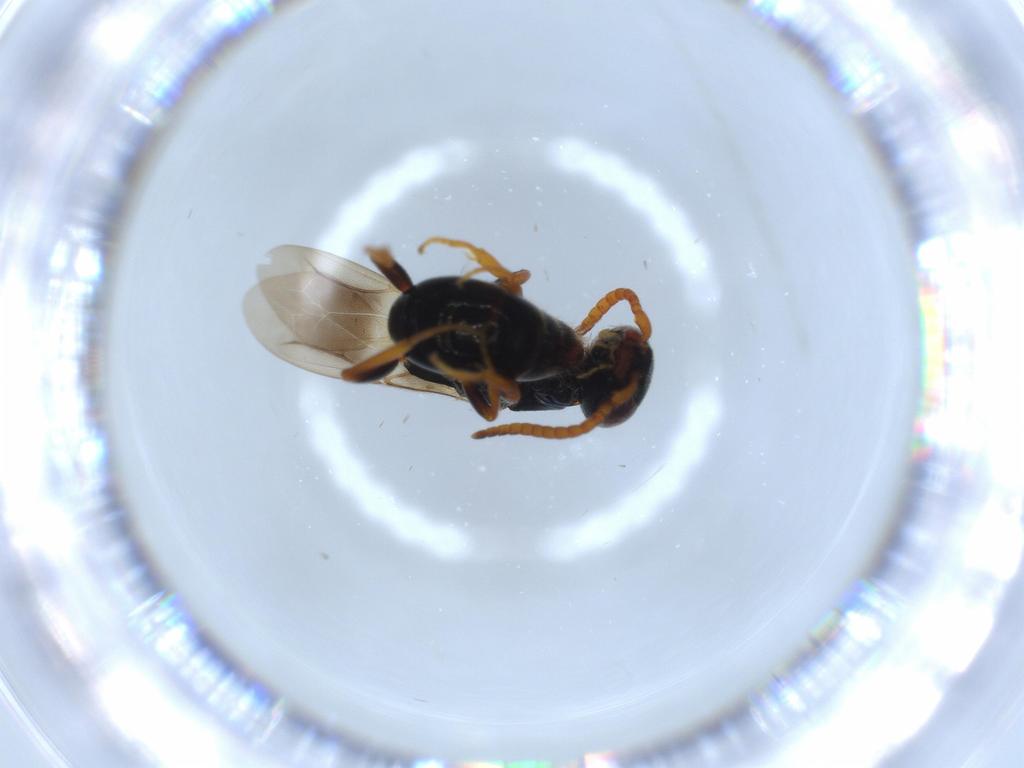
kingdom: Animalia
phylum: Arthropoda
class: Insecta
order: Hymenoptera
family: Bethylidae
